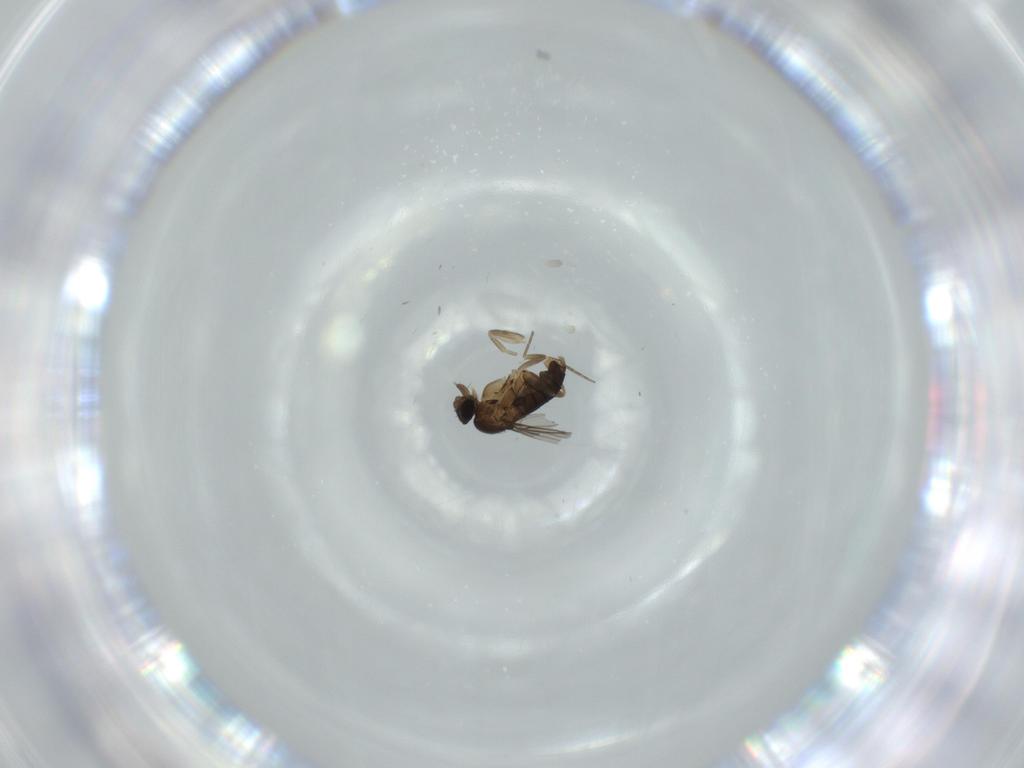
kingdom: Animalia
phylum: Arthropoda
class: Insecta
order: Diptera
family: Phoridae
